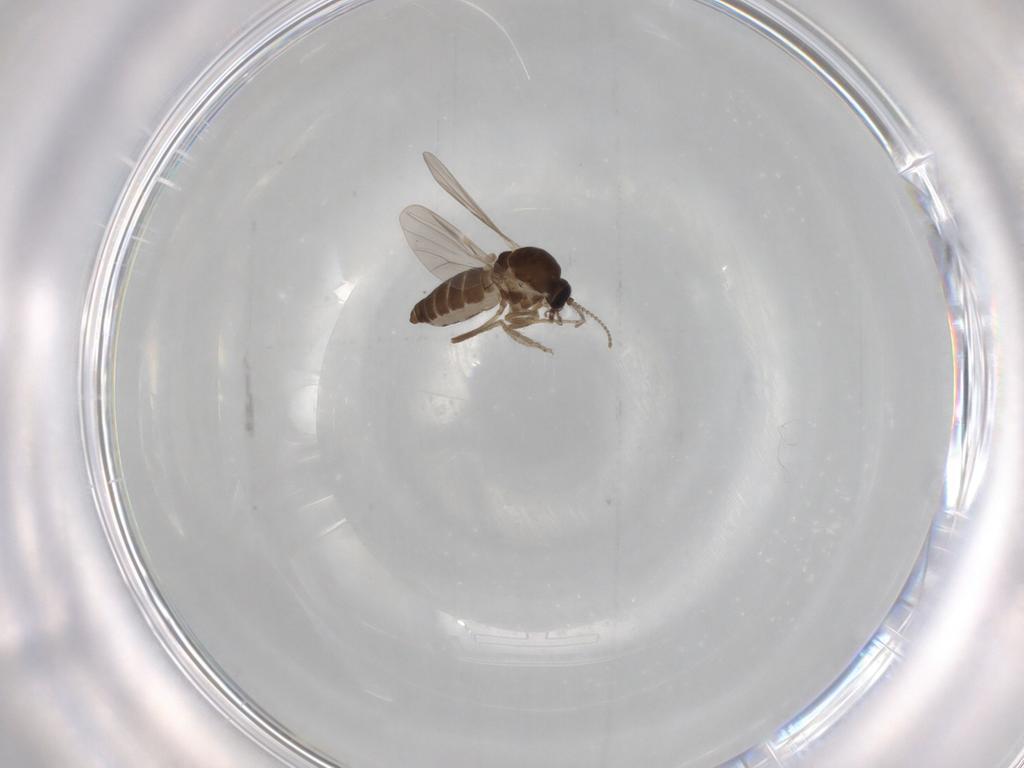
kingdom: Animalia
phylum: Arthropoda
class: Insecta
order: Diptera
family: Ceratopogonidae
